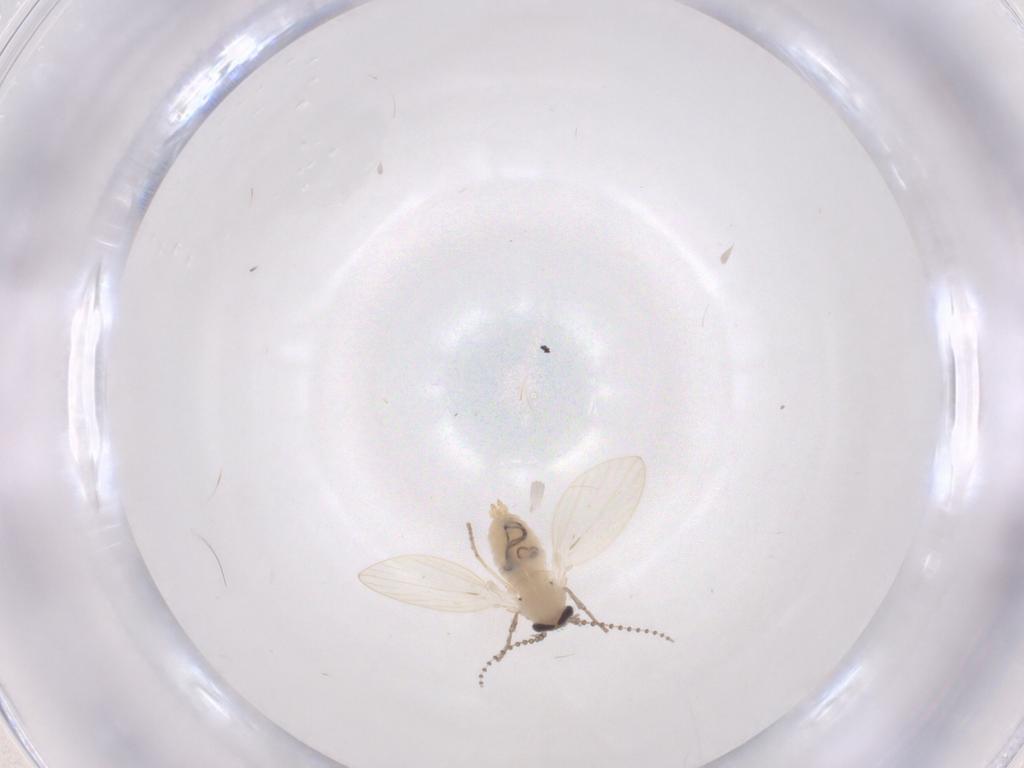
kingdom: Animalia
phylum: Arthropoda
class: Insecta
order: Diptera
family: Psychodidae
